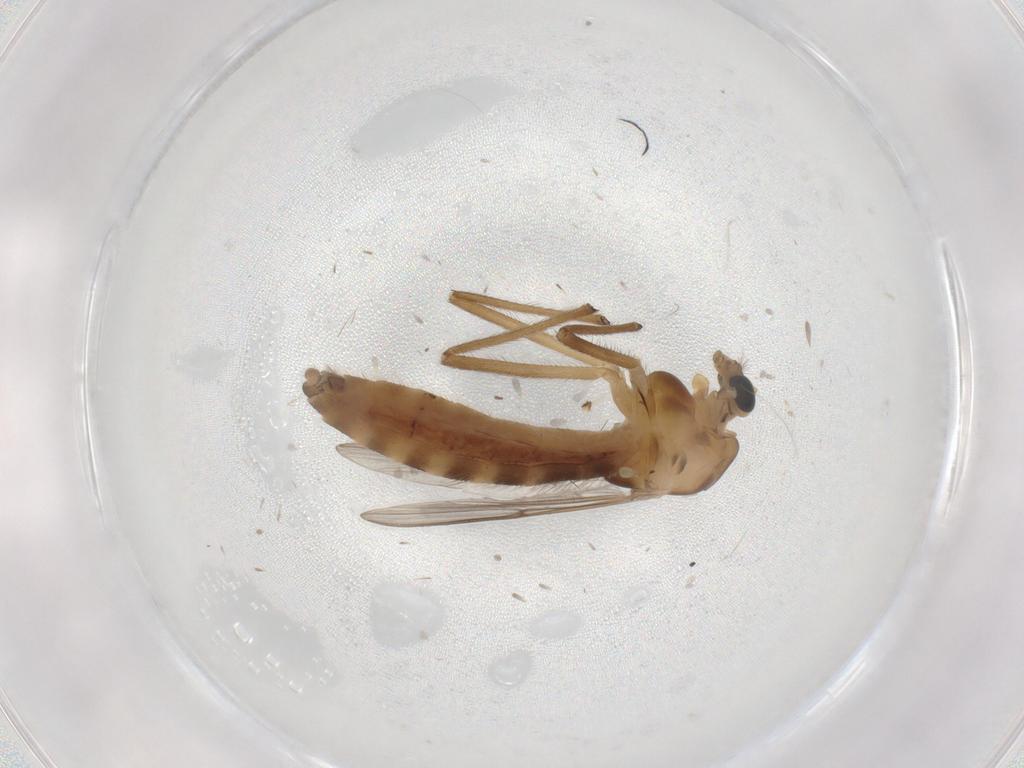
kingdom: Animalia
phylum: Arthropoda
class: Insecta
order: Diptera
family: Chironomidae
